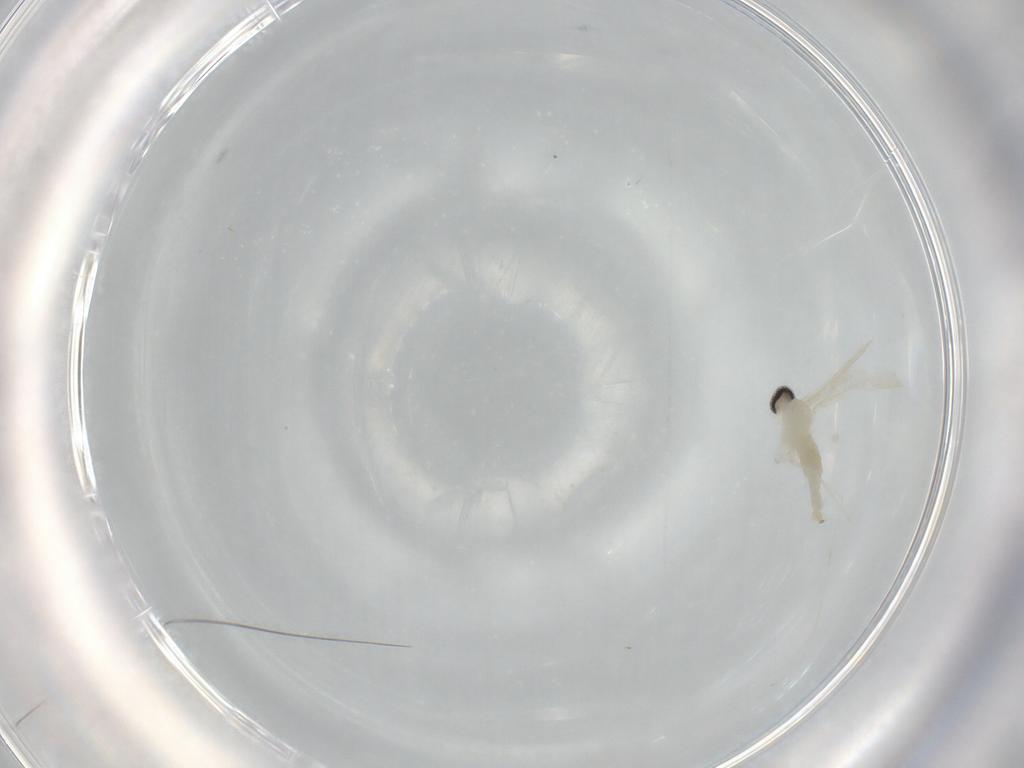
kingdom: Animalia
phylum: Arthropoda
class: Insecta
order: Diptera
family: Cecidomyiidae
